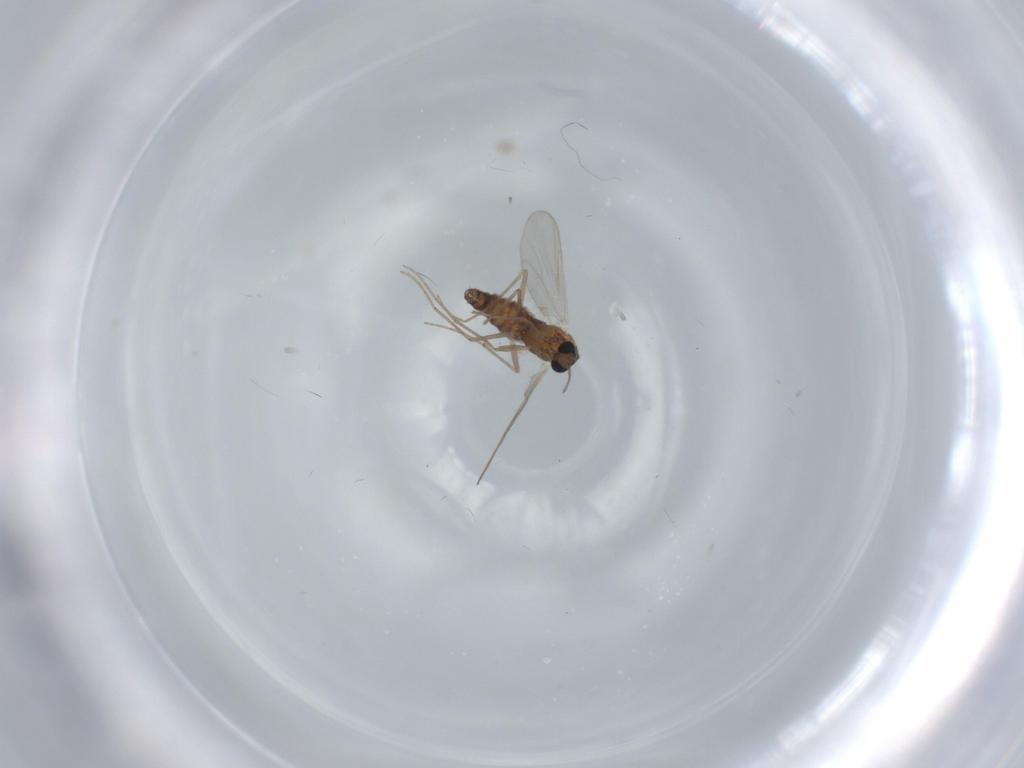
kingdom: Animalia
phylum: Arthropoda
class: Insecta
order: Diptera
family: Chironomidae
